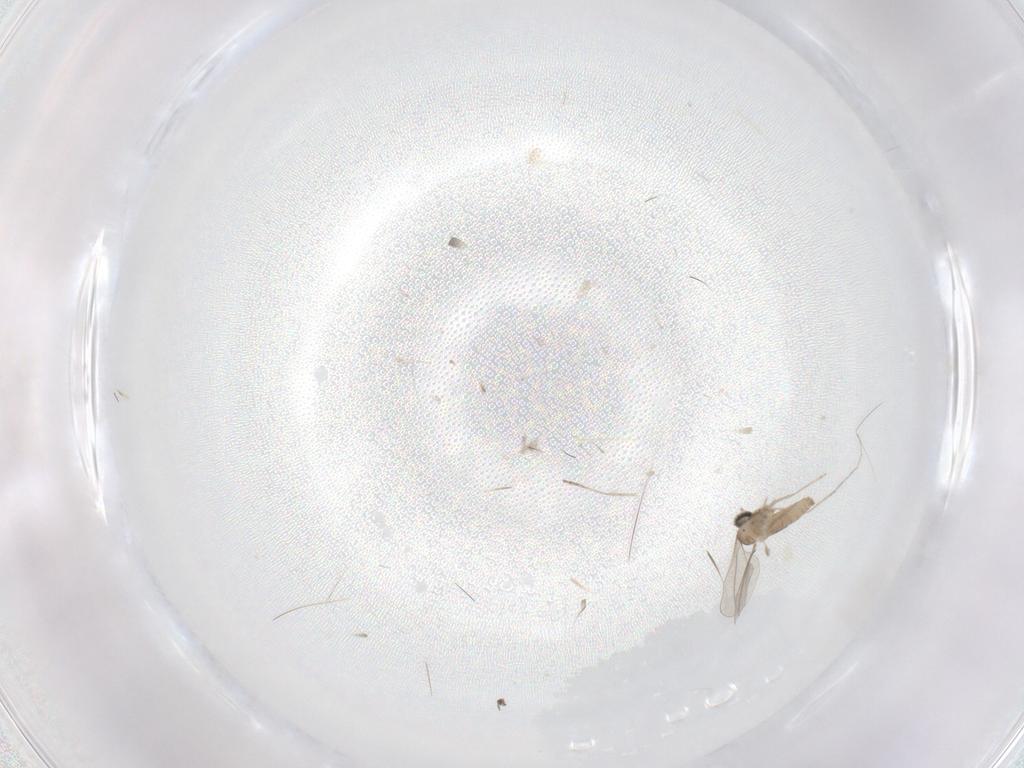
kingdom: Animalia
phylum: Arthropoda
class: Insecta
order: Diptera
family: Cecidomyiidae
